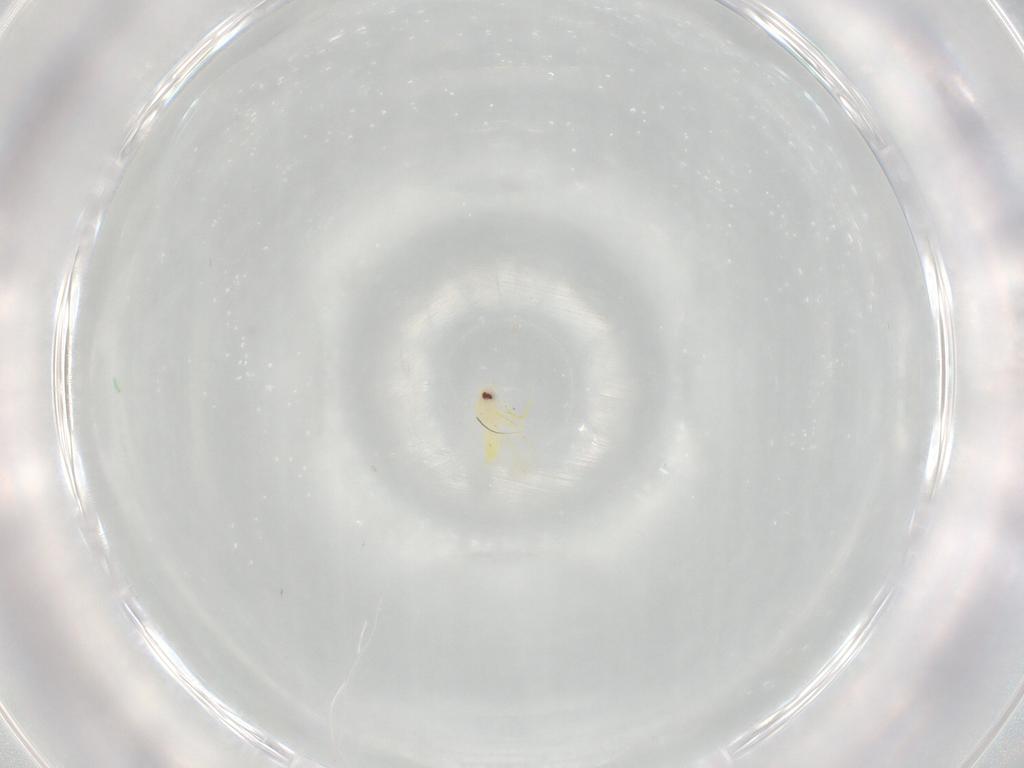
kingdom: Animalia
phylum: Arthropoda
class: Insecta
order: Hemiptera
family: Aleyrodidae
